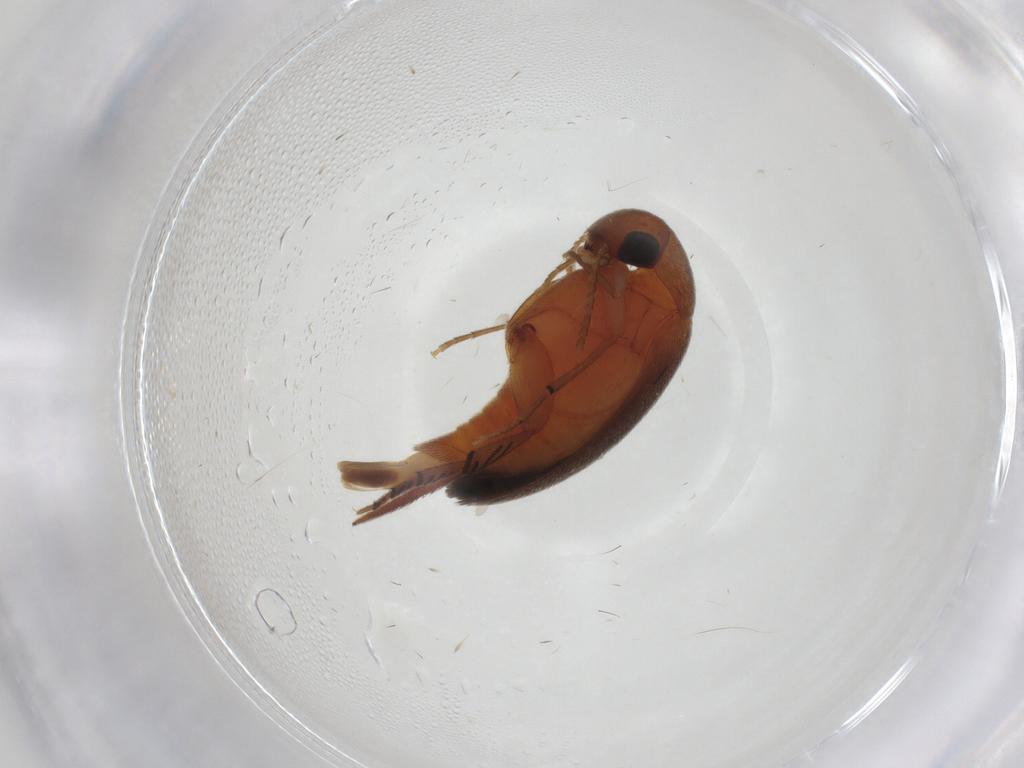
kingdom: Animalia
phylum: Arthropoda
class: Insecta
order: Coleoptera
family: Mordellidae
